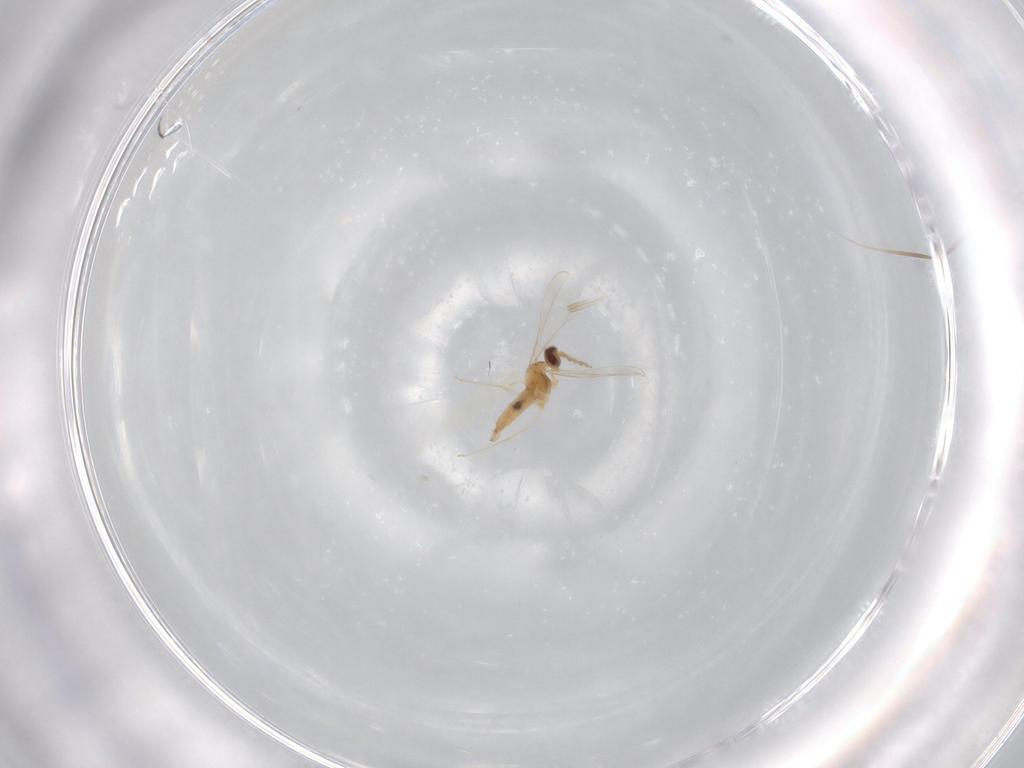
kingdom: Animalia
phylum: Arthropoda
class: Insecta
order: Diptera
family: Cecidomyiidae
